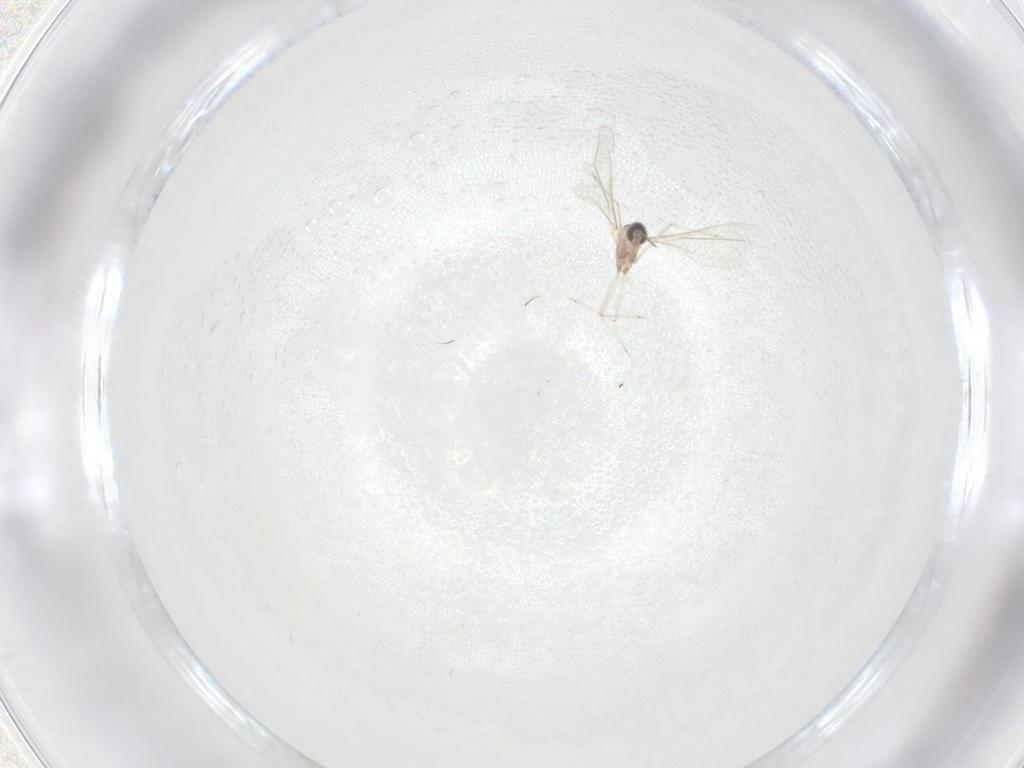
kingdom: Animalia
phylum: Arthropoda
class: Insecta
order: Diptera
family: Cecidomyiidae
